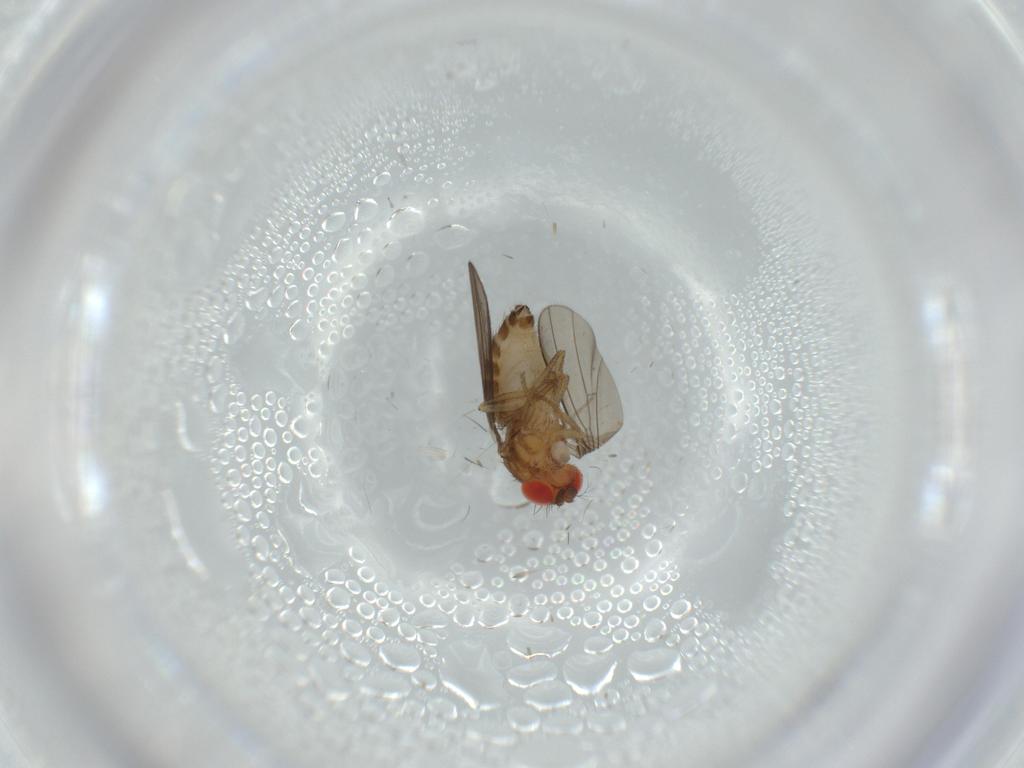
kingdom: Animalia
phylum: Arthropoda
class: Insecta
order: Diptera
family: Drosophilidae
